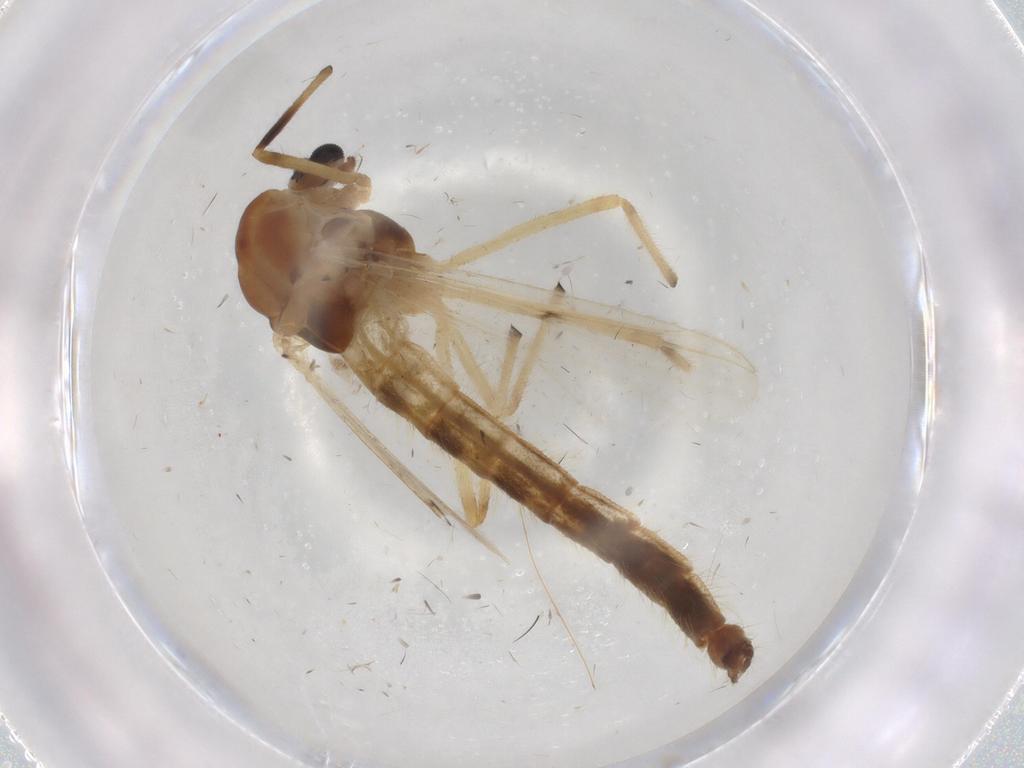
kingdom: Animalia
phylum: Arthropoda
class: Insecta
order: Diptera
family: Chironomidae
